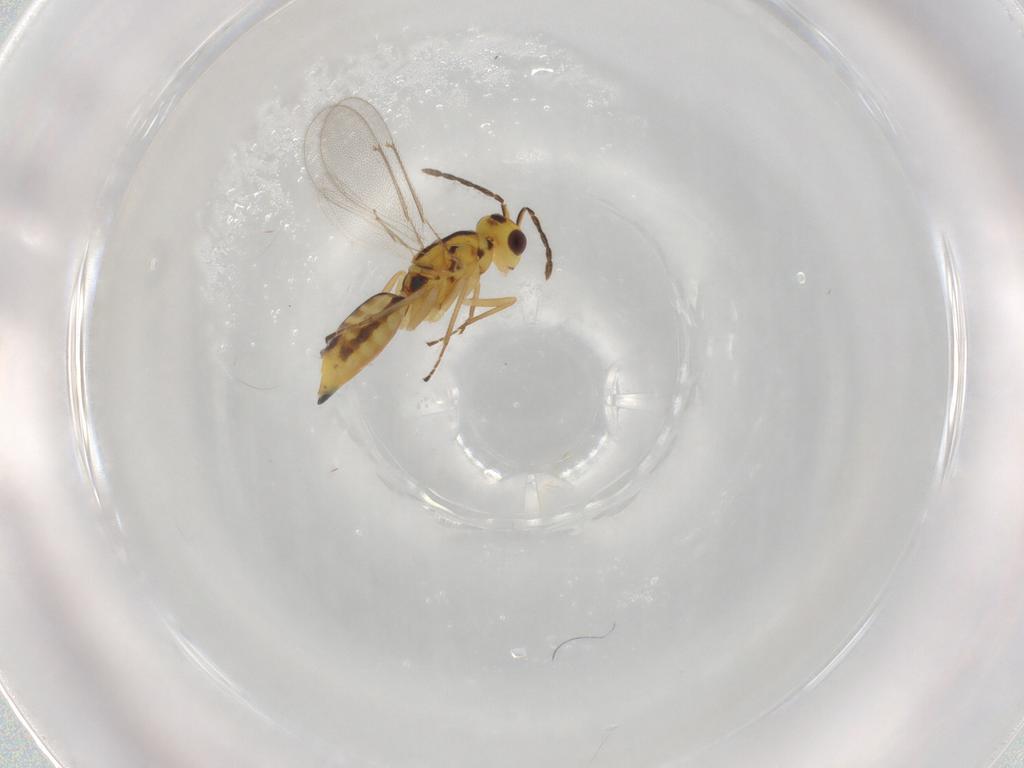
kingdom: Animalia
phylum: Arthropoda
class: Insecta
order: Hymenoptera
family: Eulophidae
